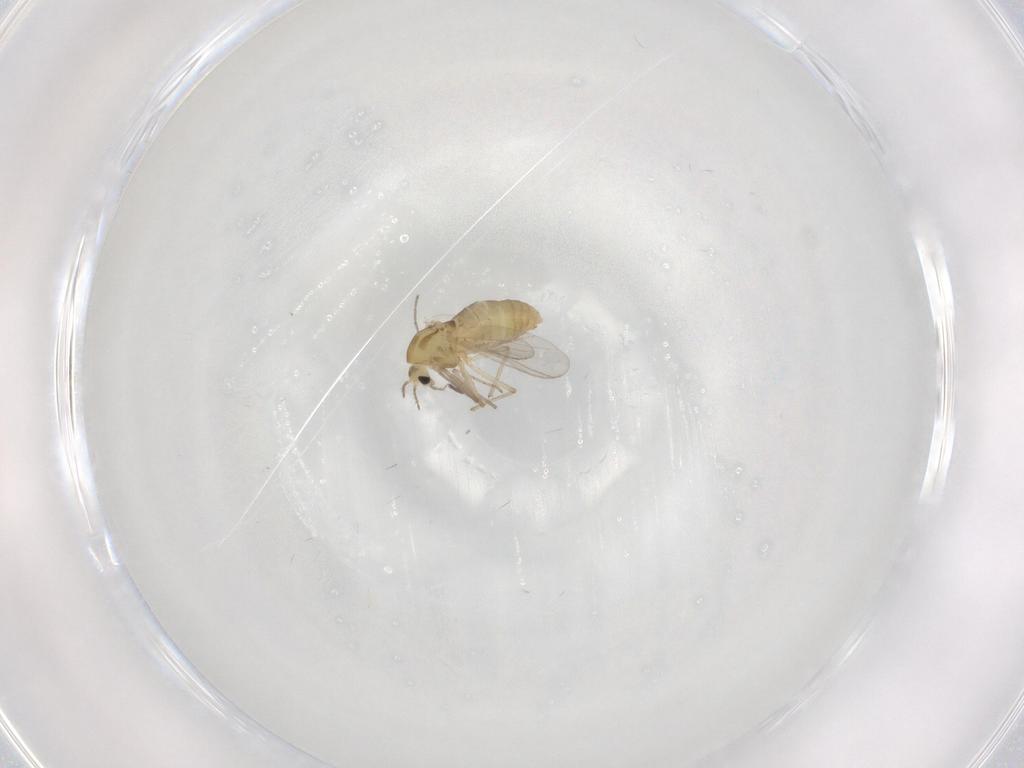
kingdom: Animalia
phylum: Arthropoda
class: Insecta
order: Diptera
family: Chironomidae
